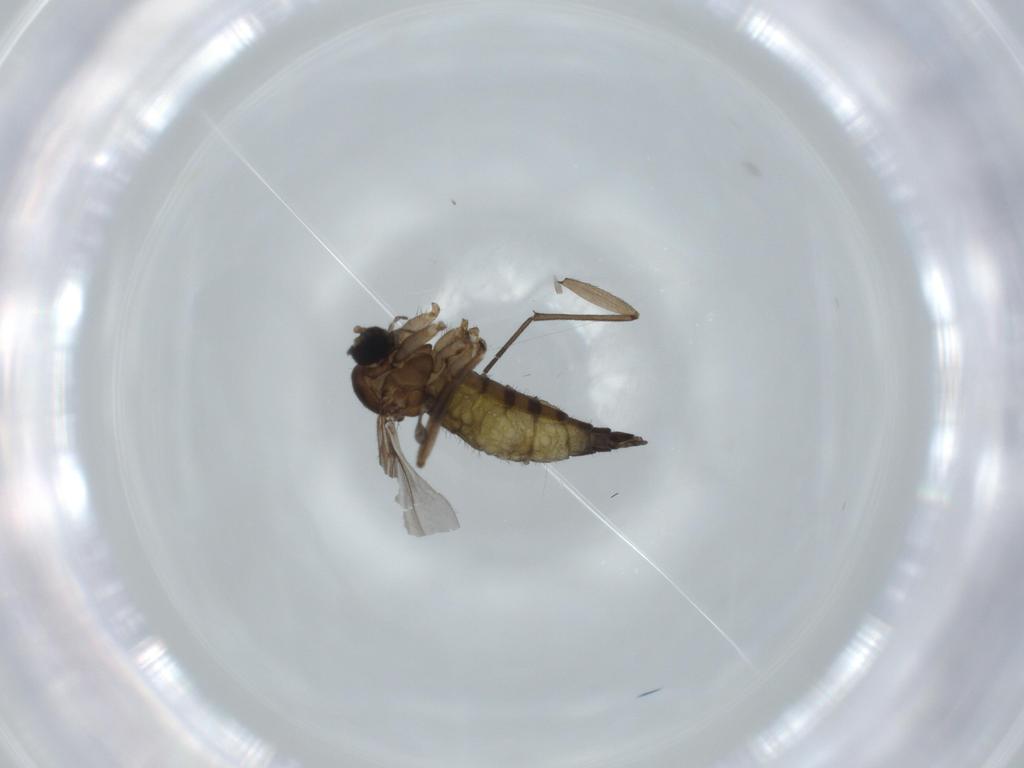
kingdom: Animalia
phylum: Arthropoda
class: Insecta
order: Diptera
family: Sciaridae
